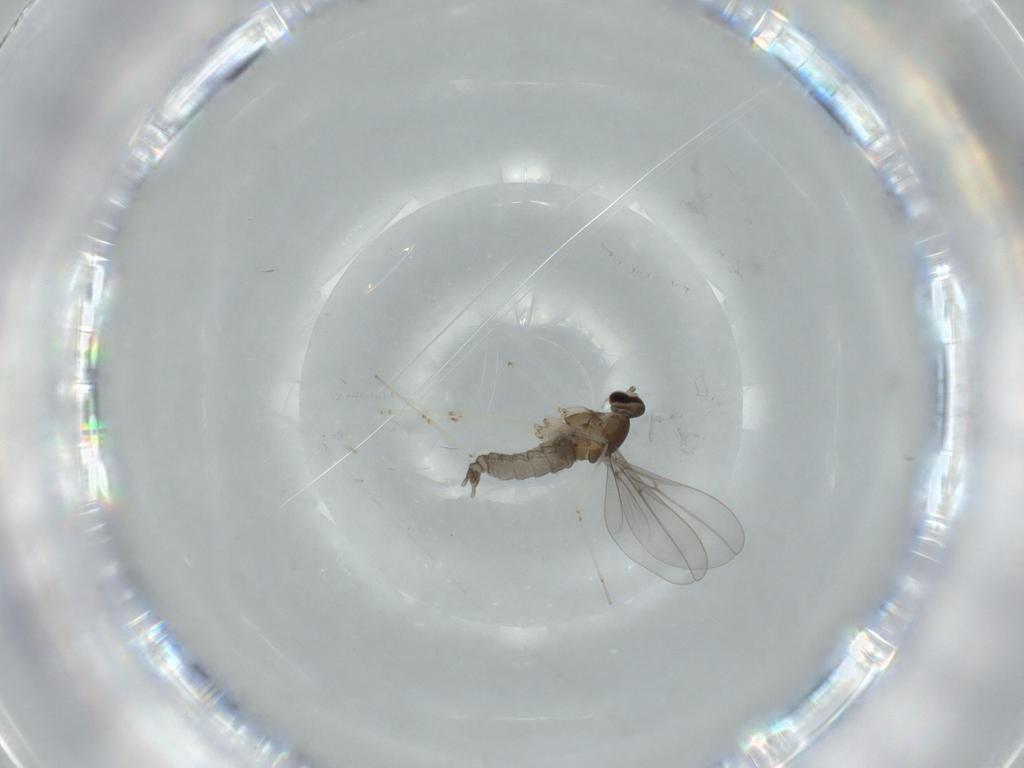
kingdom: Animalia
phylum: Arthropoda
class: Insecta
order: Diptera
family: Cecidomyiidae
